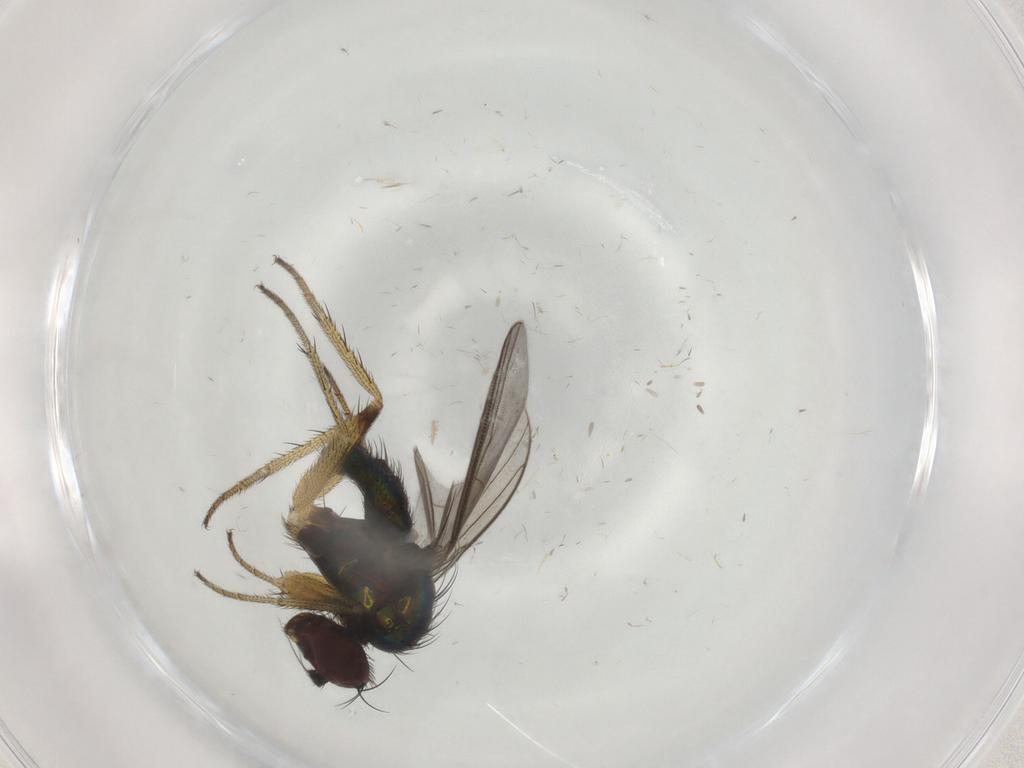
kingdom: Animalia
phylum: Arthropoda
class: Insecta
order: Diptera
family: Dolichopodidae
